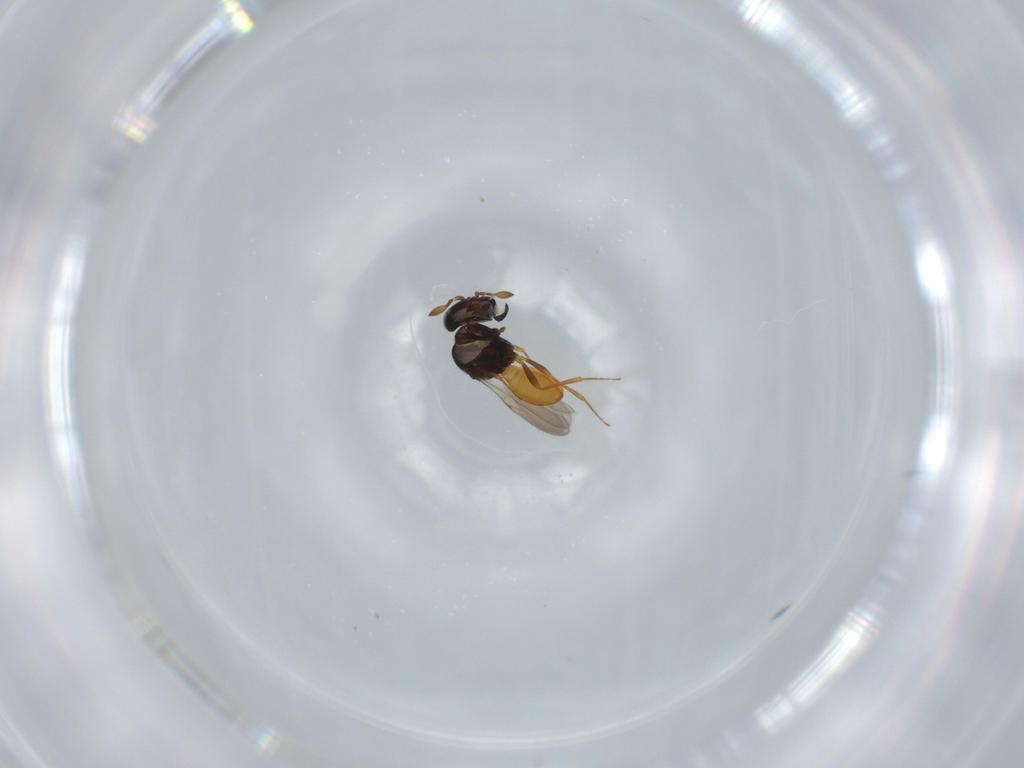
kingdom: Animalia
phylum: Arthropoda
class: Insecta
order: Hymenoptera
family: Scelionidae
